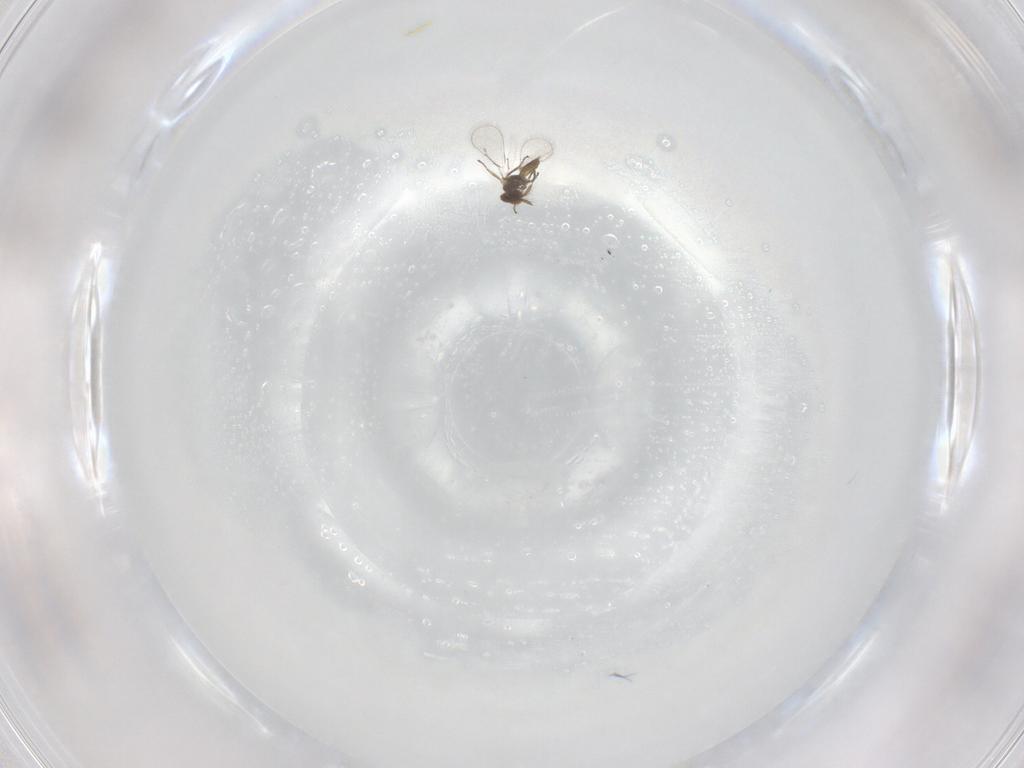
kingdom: Animalia
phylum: Arthropoda
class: Insecta
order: Hymenoptera
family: Eulophidae
